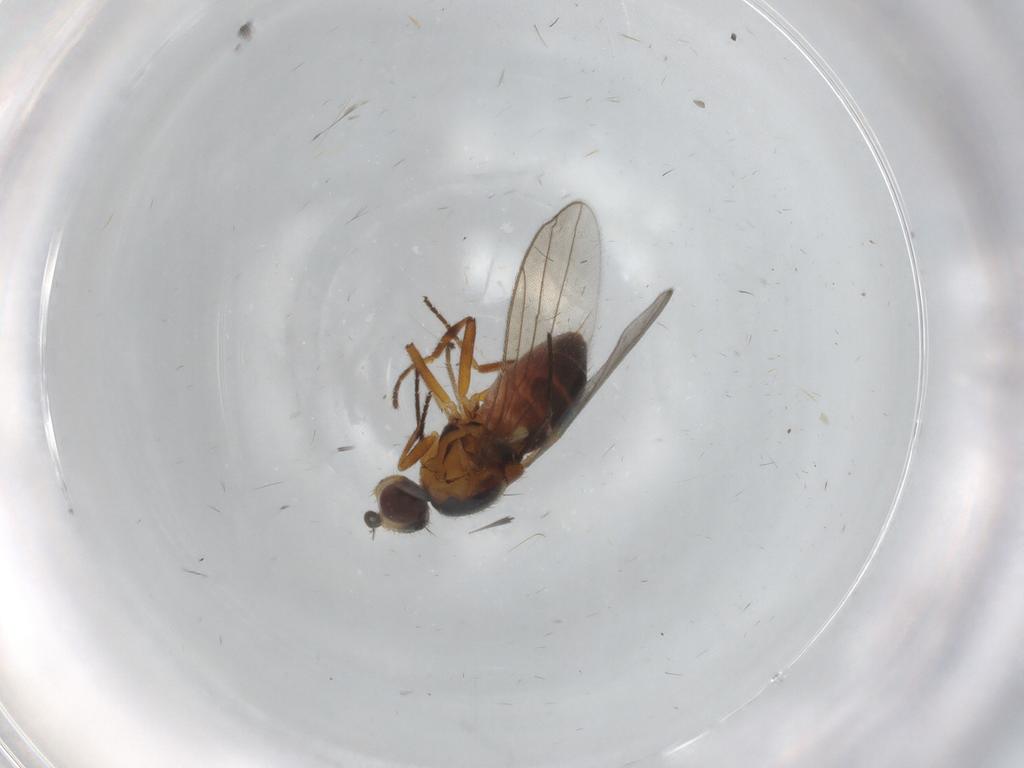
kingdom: Animalia
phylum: Arthropoda
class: Insecta
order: Diptera
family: Chloropidae
